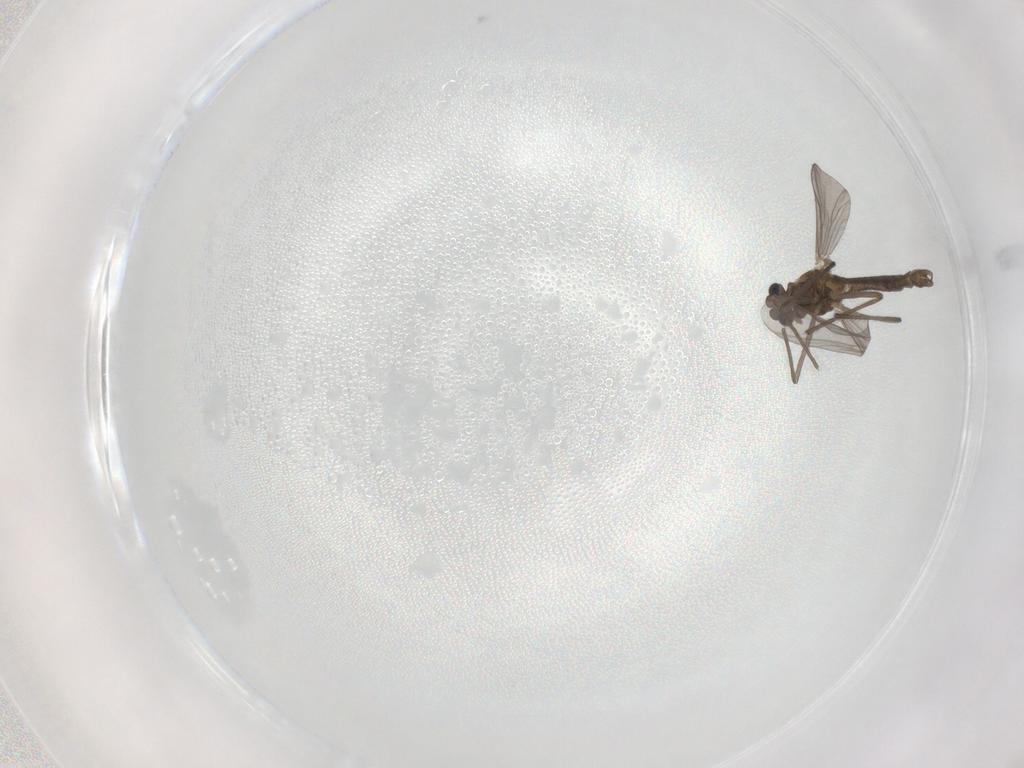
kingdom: Animalia
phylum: Arthropoda
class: Insecta
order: Diptera
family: Chironomidae
